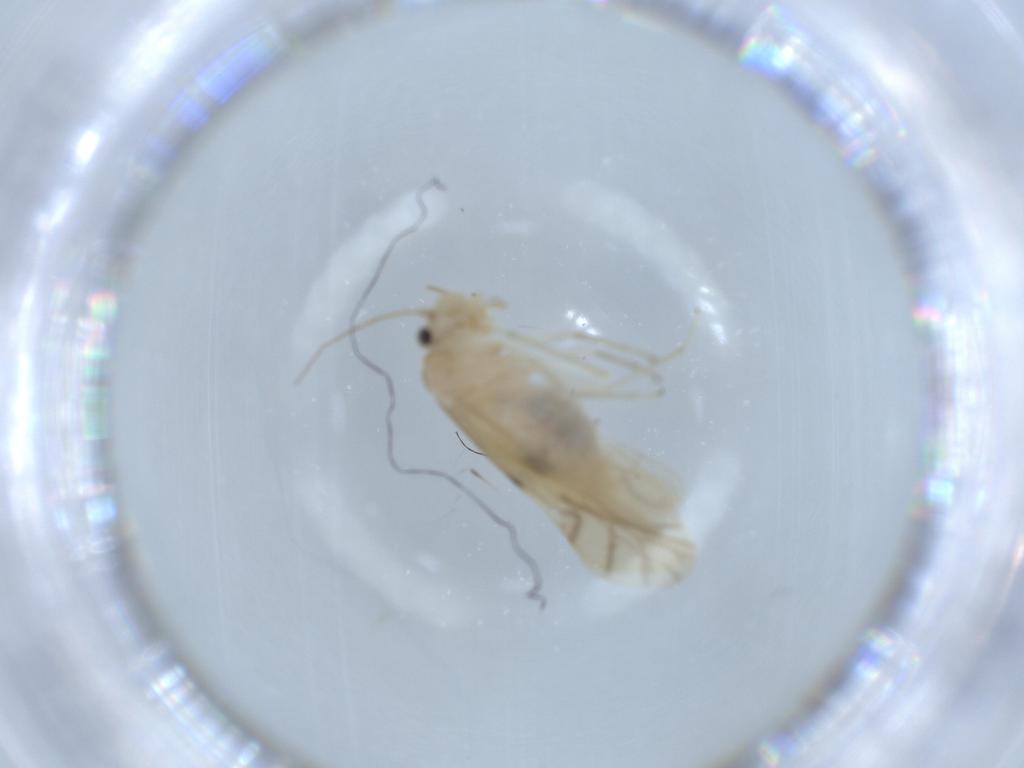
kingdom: Animalia
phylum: Arthropoda
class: Insecta
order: Psocodea
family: Caeciliusidae
